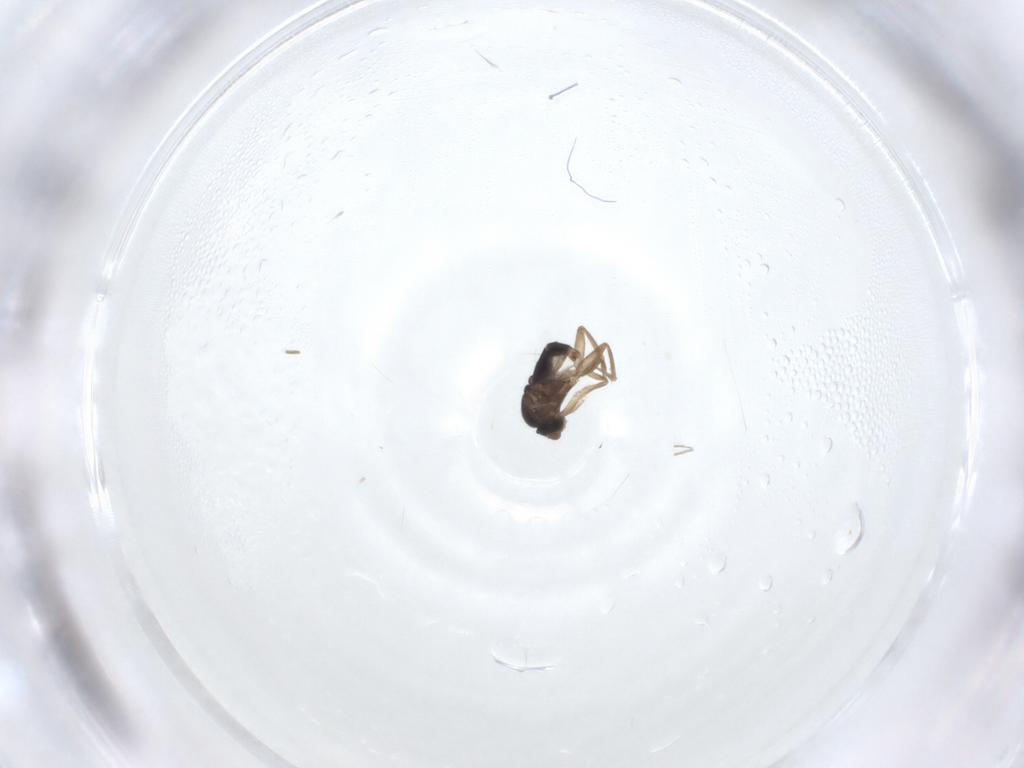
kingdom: Animalia
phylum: Arthropoda
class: Insecta
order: Diptera
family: Phoridae
